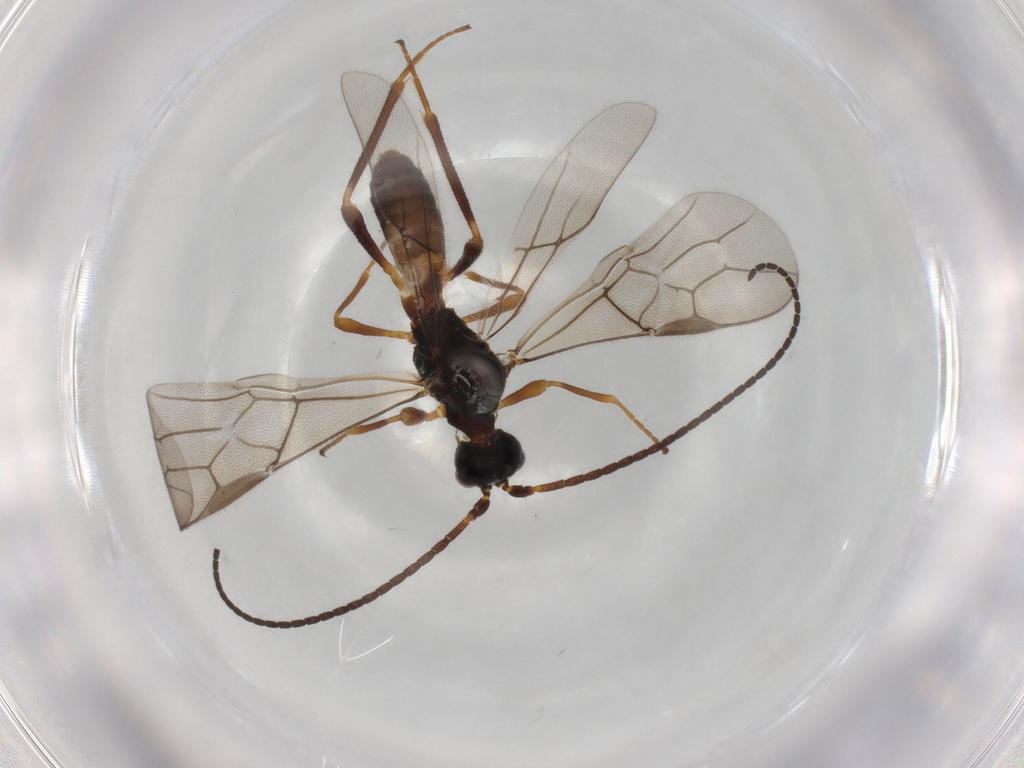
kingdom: Animalia
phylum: Arthropoda
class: Insecta
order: Hymenoptera
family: Braconidae
